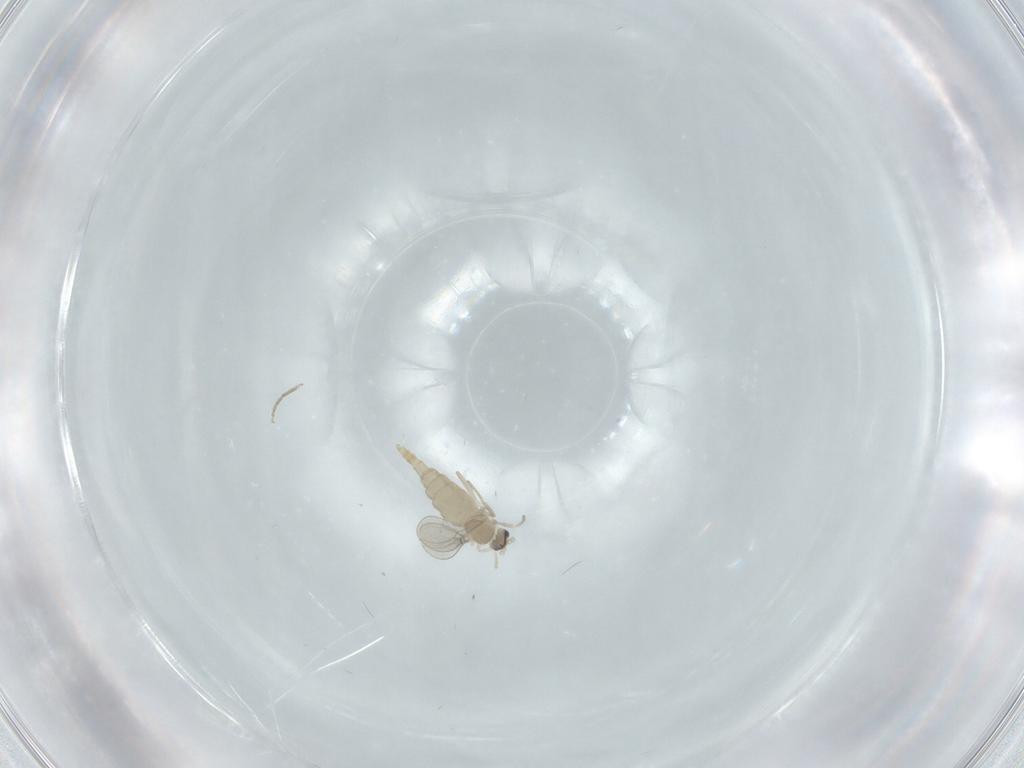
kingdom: Animalia
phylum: Arthropoda
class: Insecta
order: Diptera
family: Cecidomyiidae
